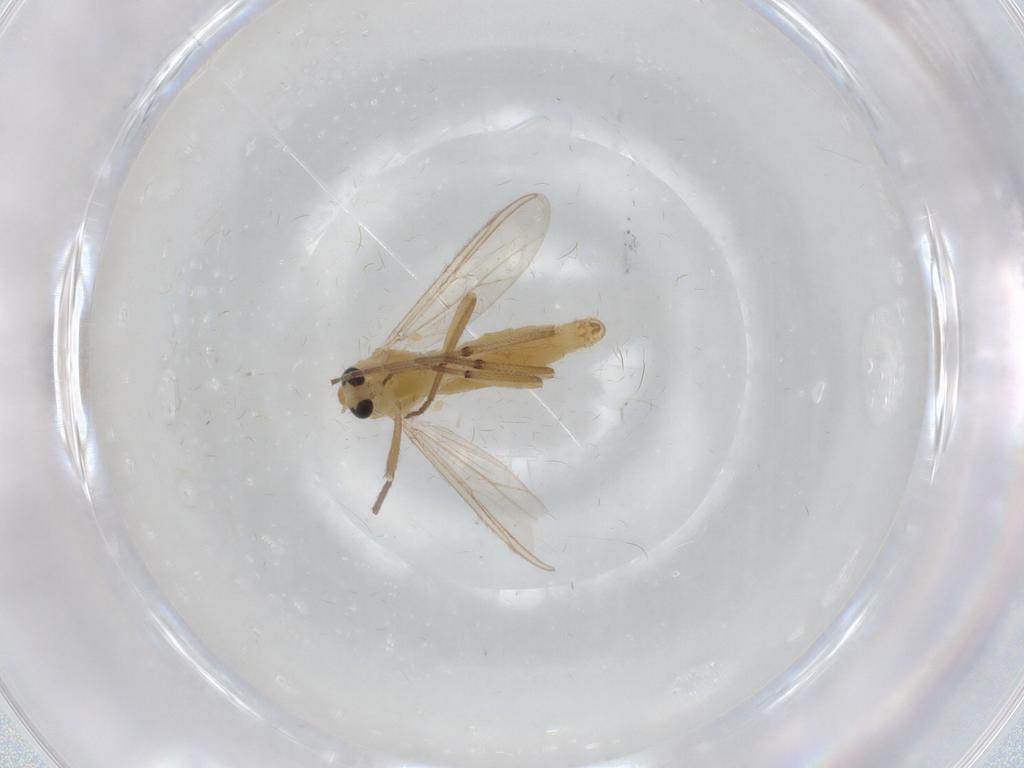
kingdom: Animalia
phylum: Arthropoda
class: Insecta
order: Diptera
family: Chironomidae
